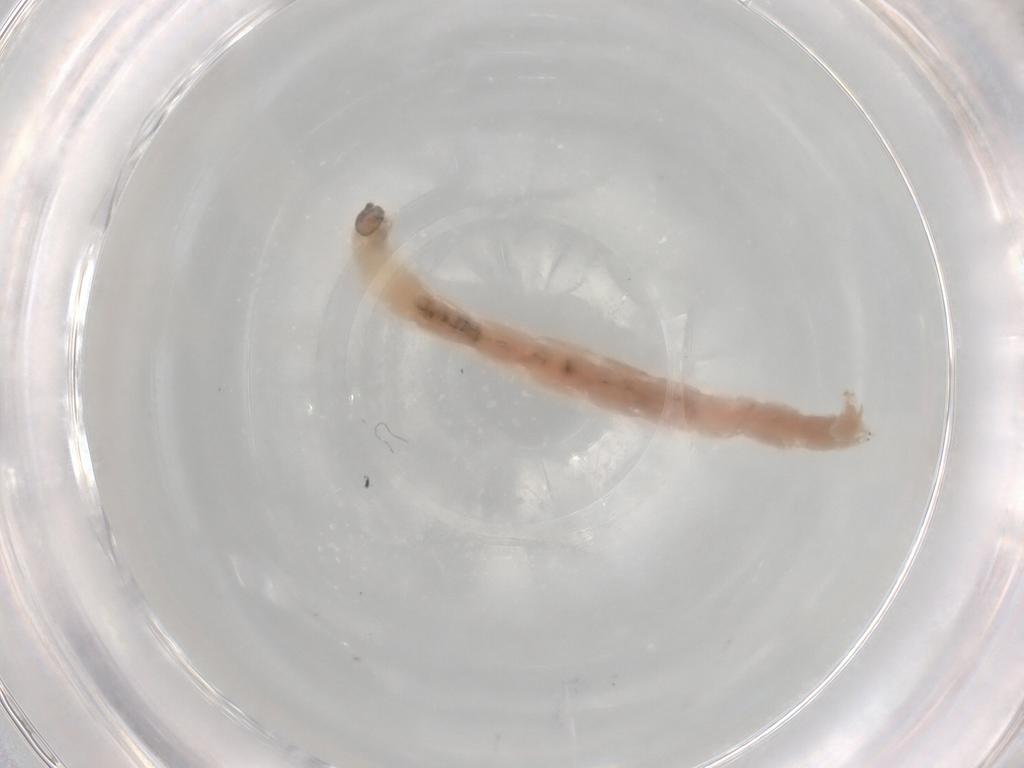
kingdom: Animalia
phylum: Arthropoda
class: Insecta
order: Diptera
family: Chironomidae
